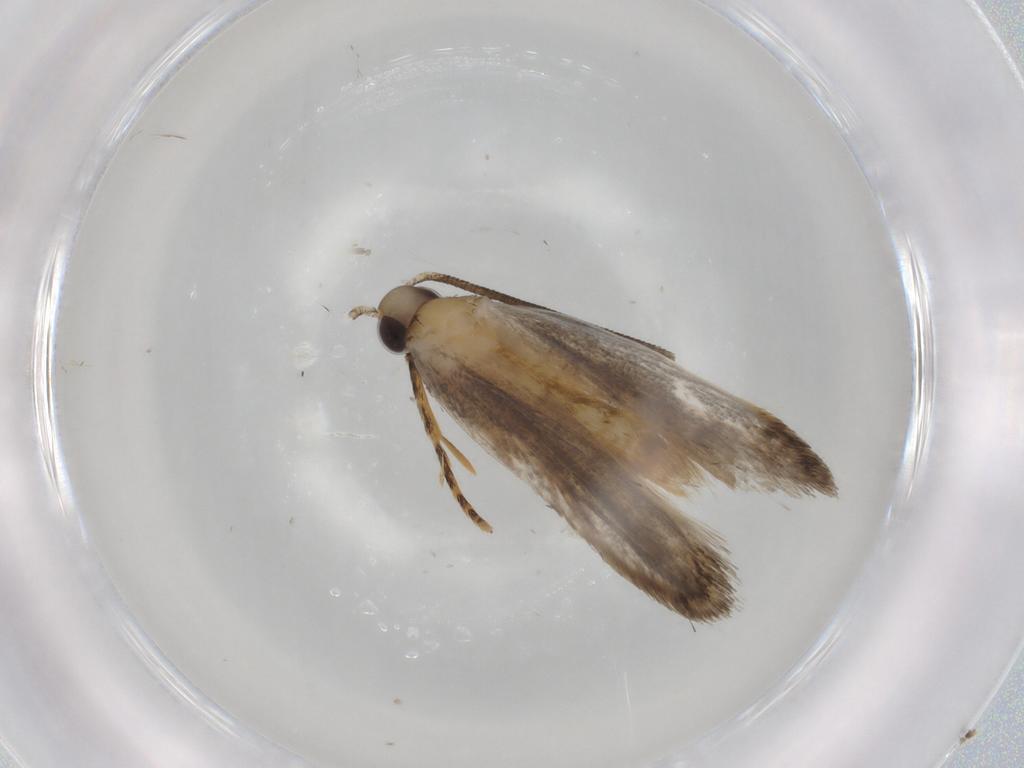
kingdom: Animalia
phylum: Arthropoda
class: Insecta
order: Lepidoptera
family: Autostichidae
